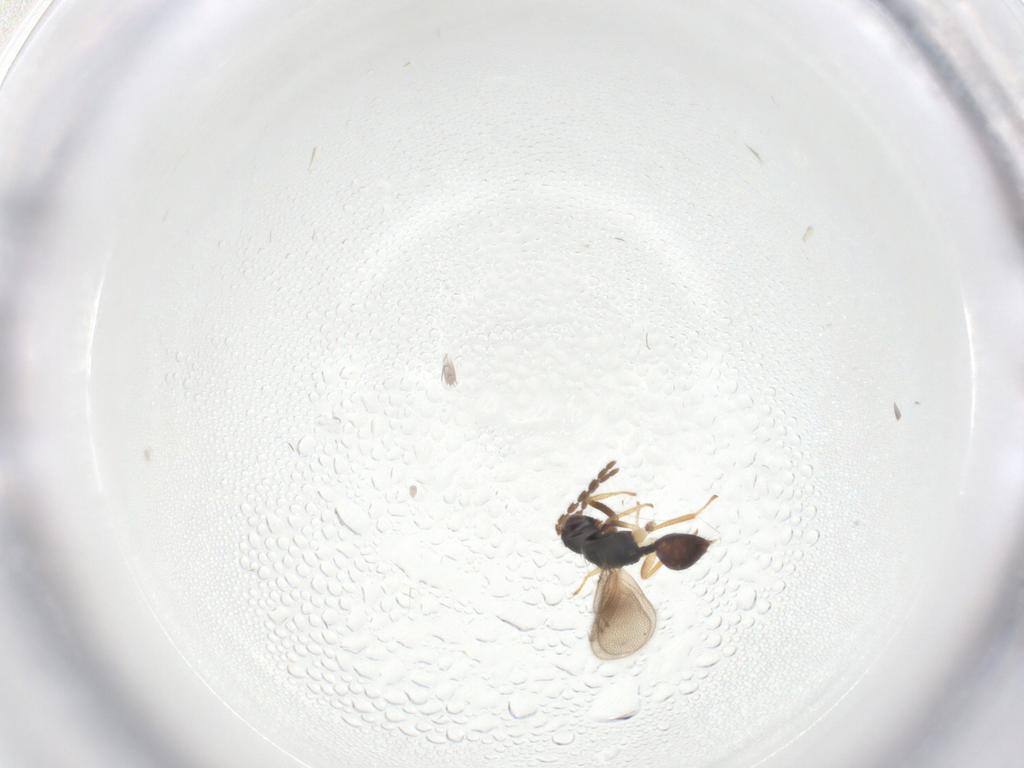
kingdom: Animalia
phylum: Arthropoda
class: Insecta
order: Hymenoptera
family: Eulophidae
